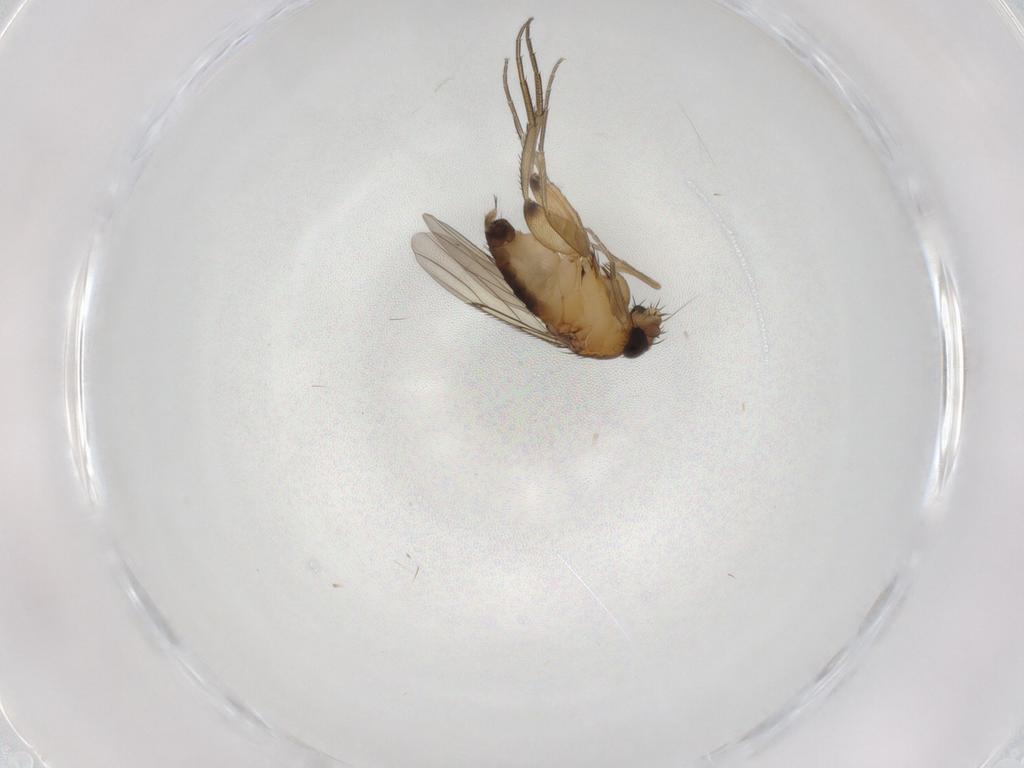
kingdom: Animalia
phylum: Arthropoda
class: Insecta
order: Diptera
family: Phoridae
